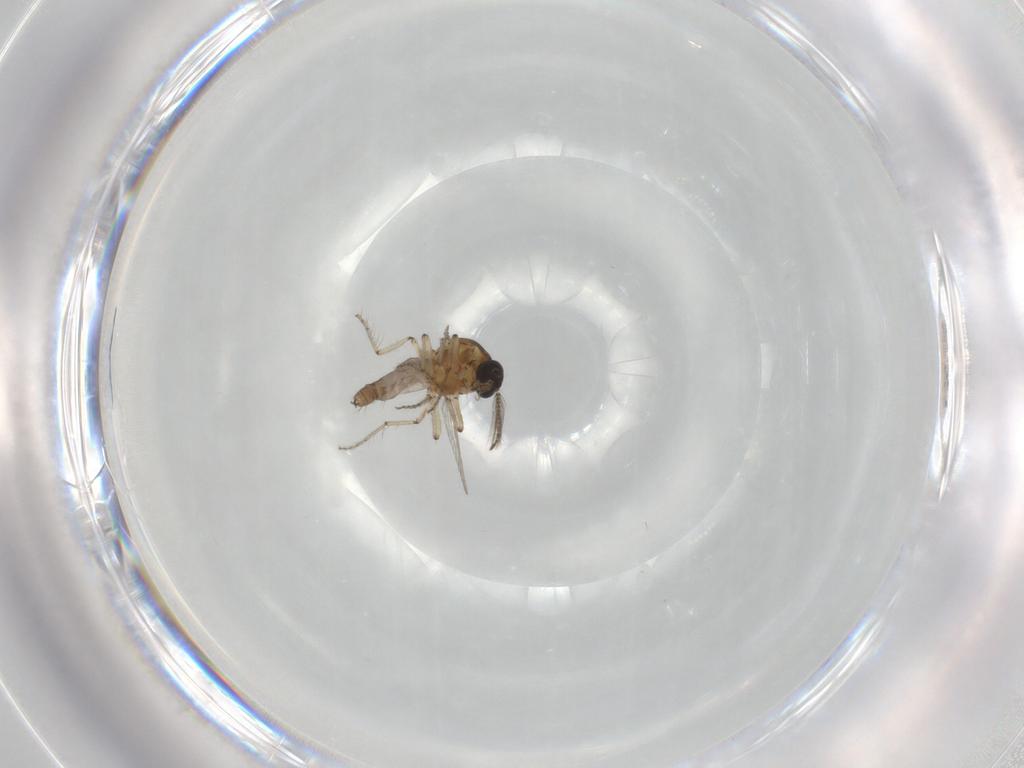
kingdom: Animalia
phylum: Arthropoda
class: Insecta
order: Diptera
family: Ceratopogonidae
